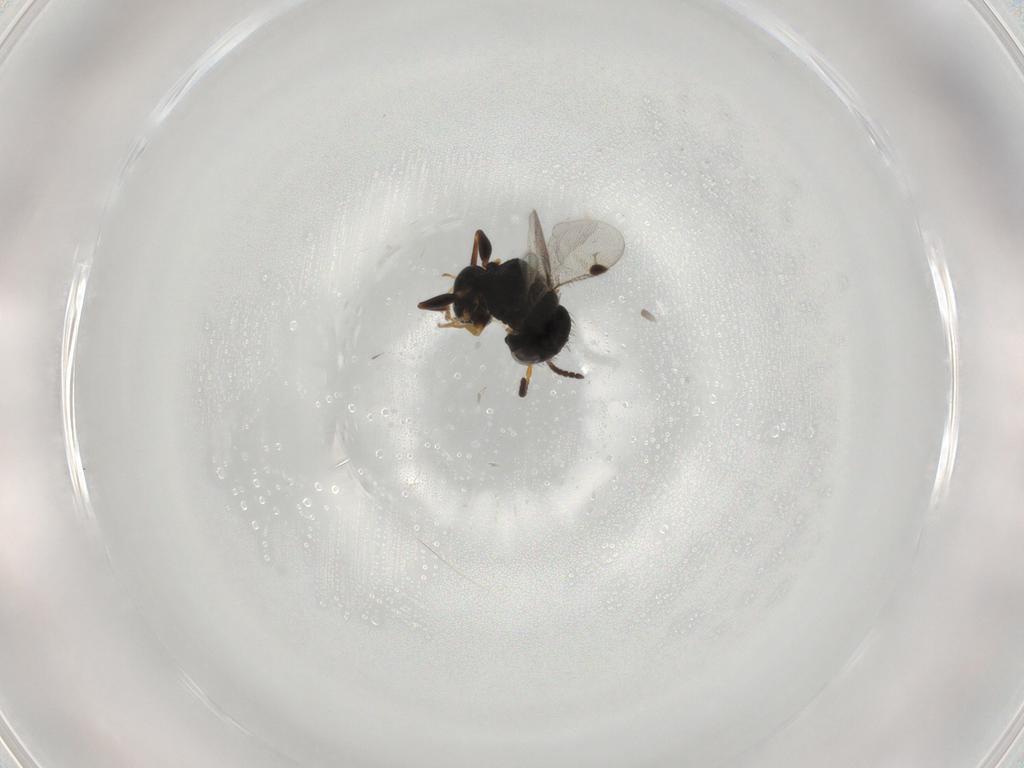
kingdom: Animalia
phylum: Arthropoda
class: Insecta
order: Hymenoptera
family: Dryinidae
